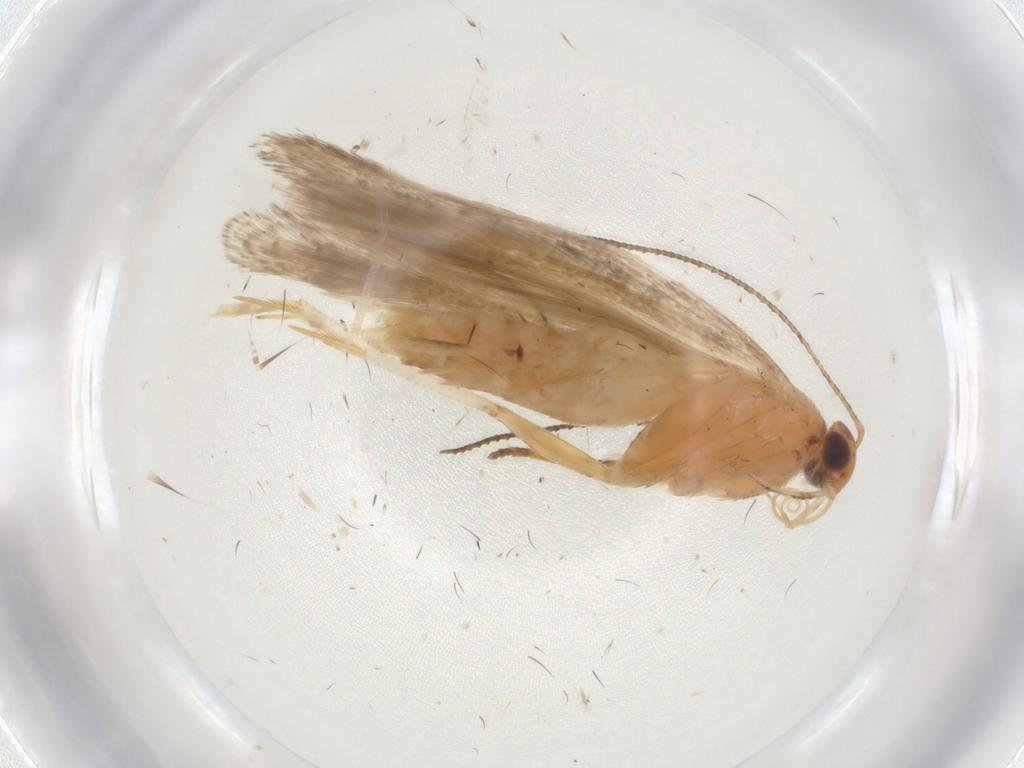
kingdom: Animalia
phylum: Arthropoda
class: Insecta
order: Lepidoptera
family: Gelechiidae
